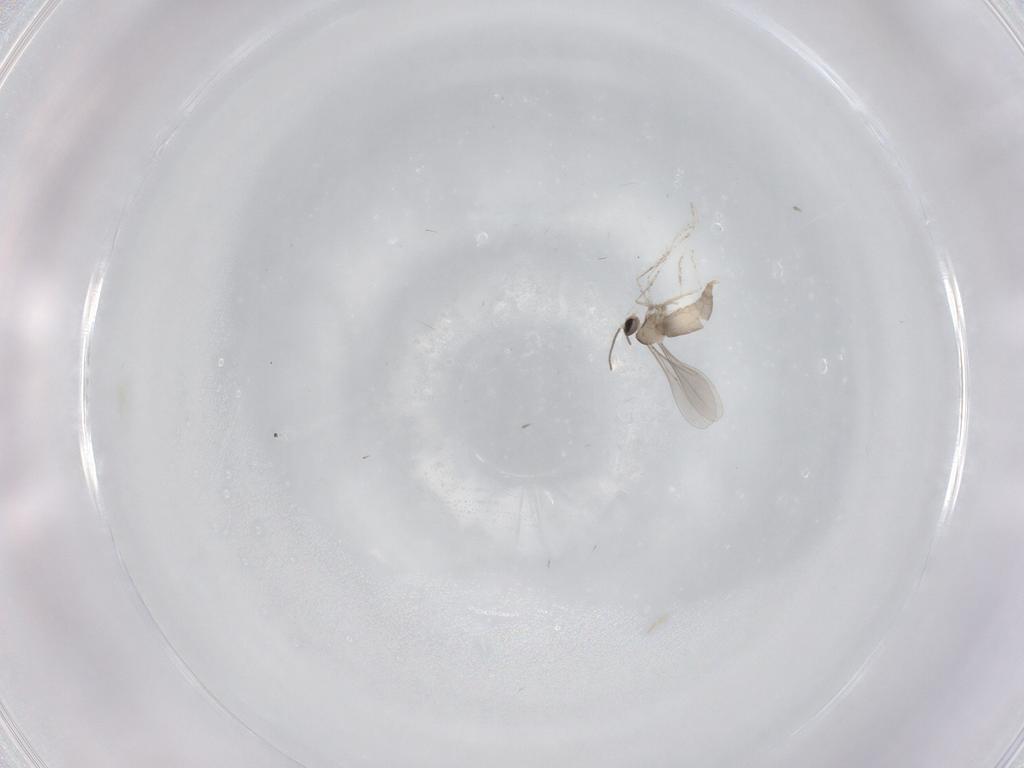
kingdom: Animalia
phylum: Arthropoda
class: Insecta
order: Diptera
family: Cecidomyiidae
